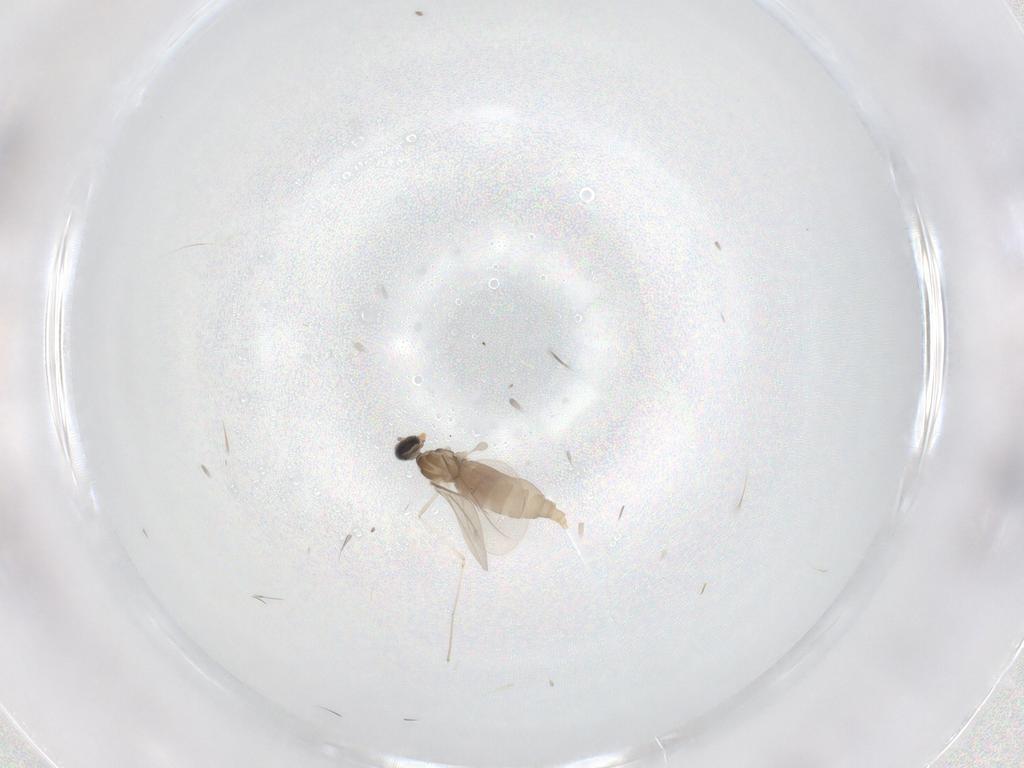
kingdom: Animalia
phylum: Arthropoda
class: Insecta
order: Diptera
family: Cecidomyiidae
